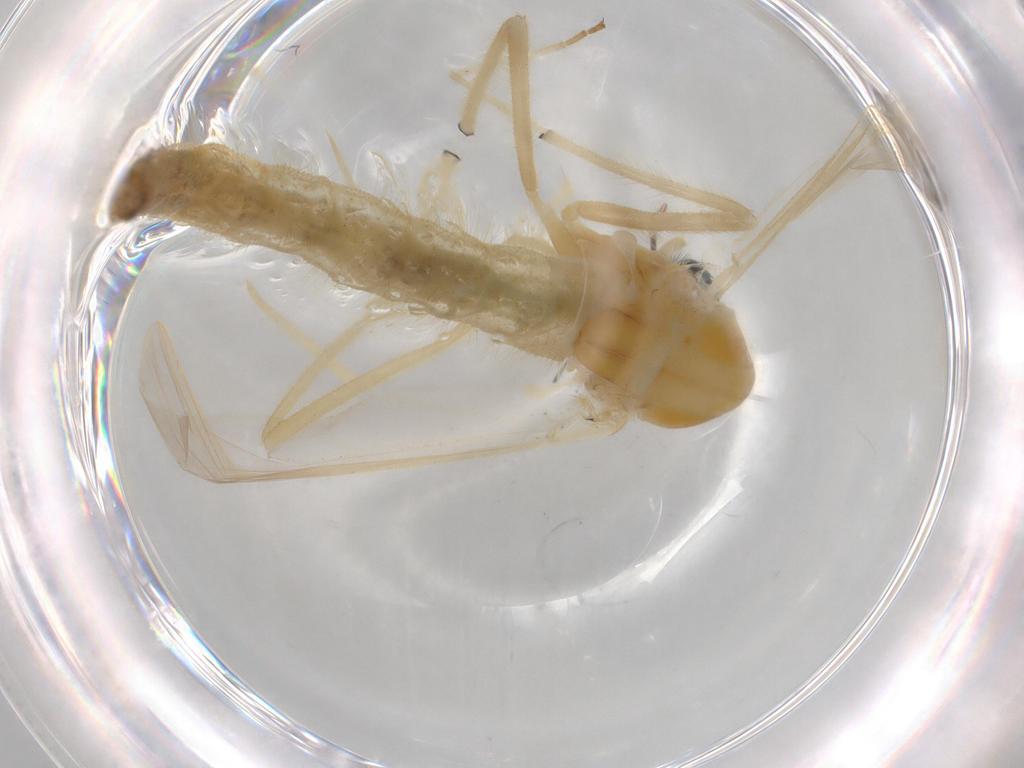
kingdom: Animalia
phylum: Arthropoda
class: Insecta
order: Diptera
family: Chironomidae
